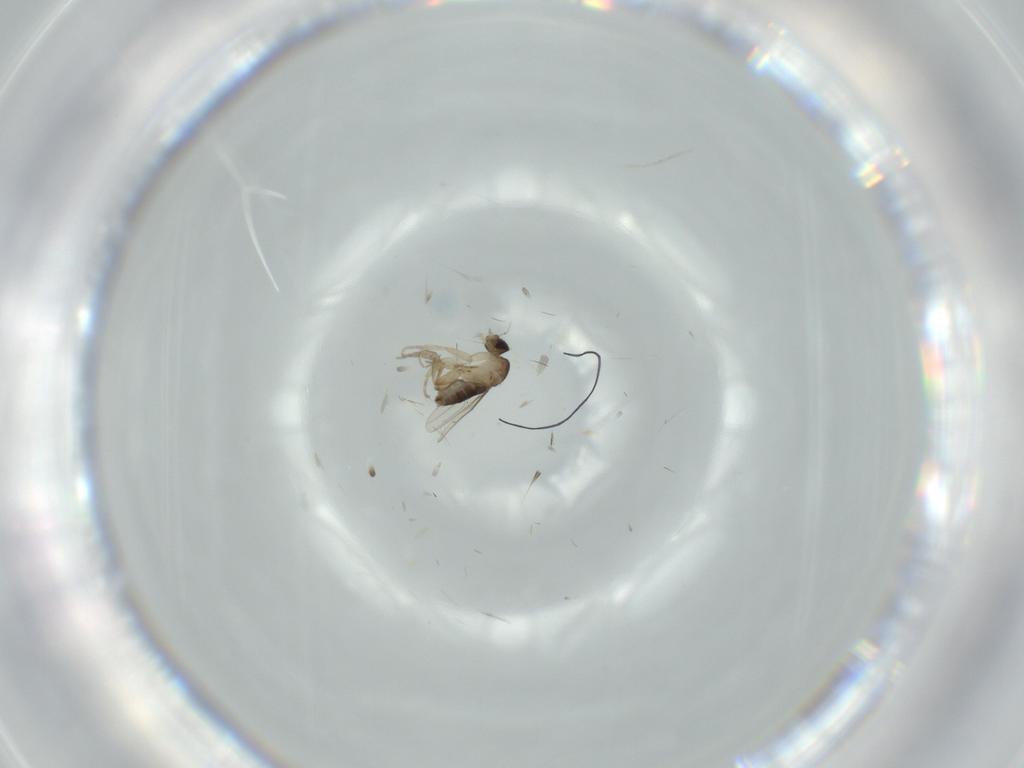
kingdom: Animalia
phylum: Arthropoda
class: Insecta
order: Diptera
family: Phoridae
